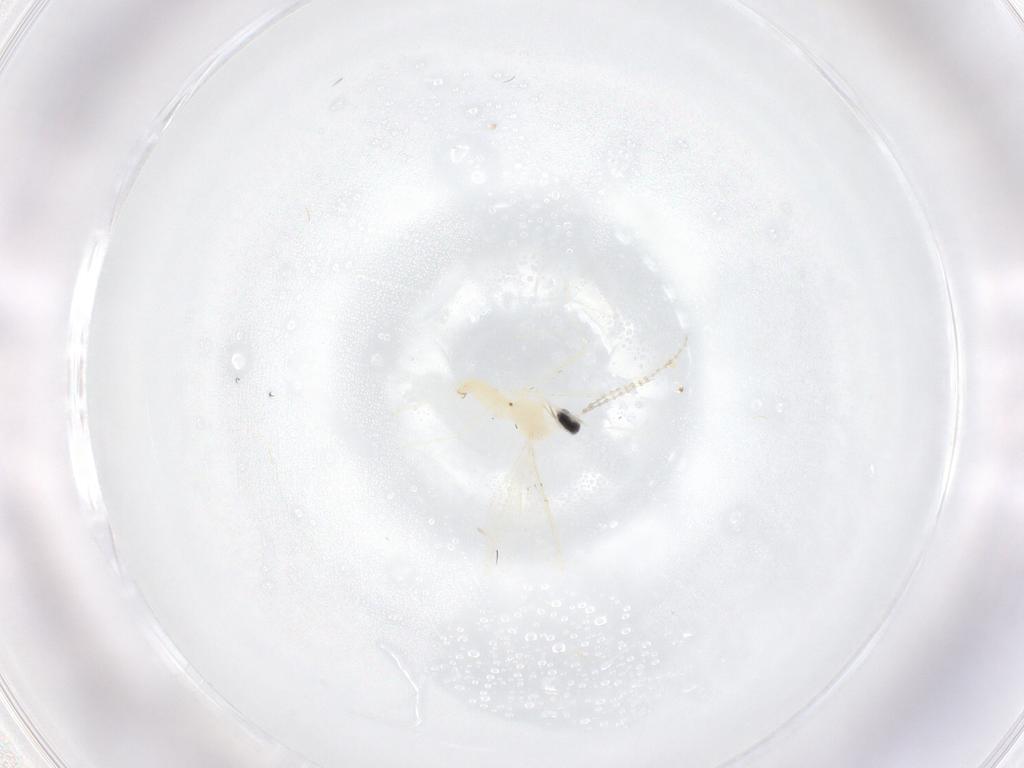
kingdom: Animalia
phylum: Arthropoda
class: Insecta
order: Diptera
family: Cecidomyiidae
